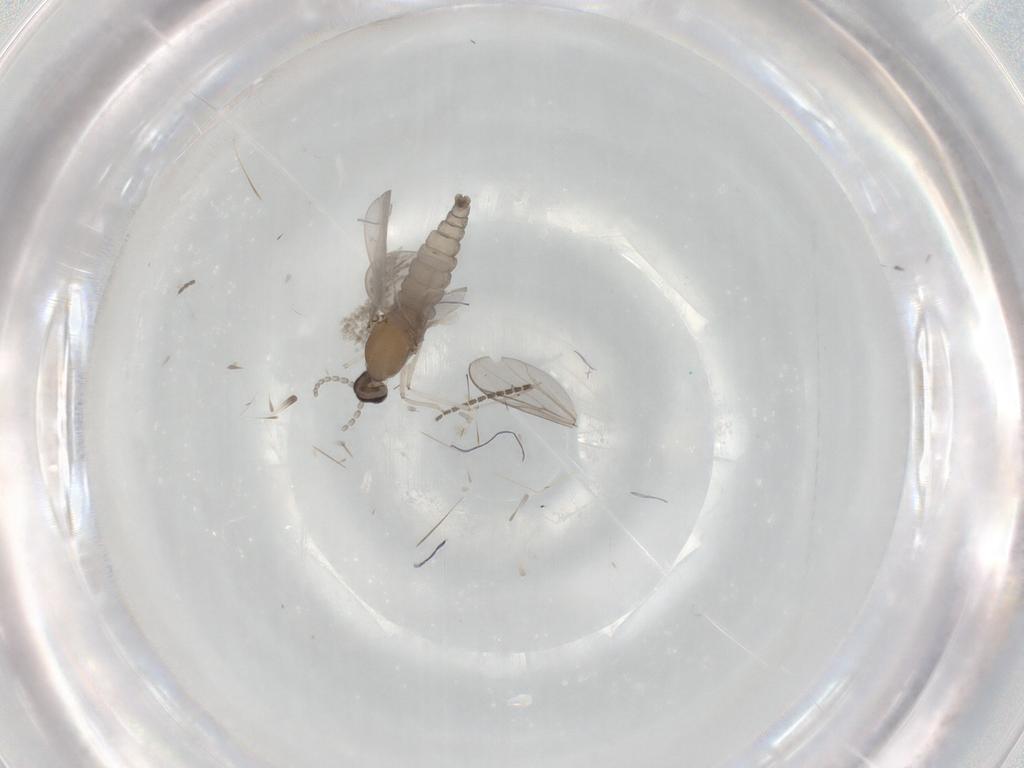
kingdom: Animalia
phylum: Arthropoda
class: Insecta
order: Diptera
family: Cecidomyiidae
